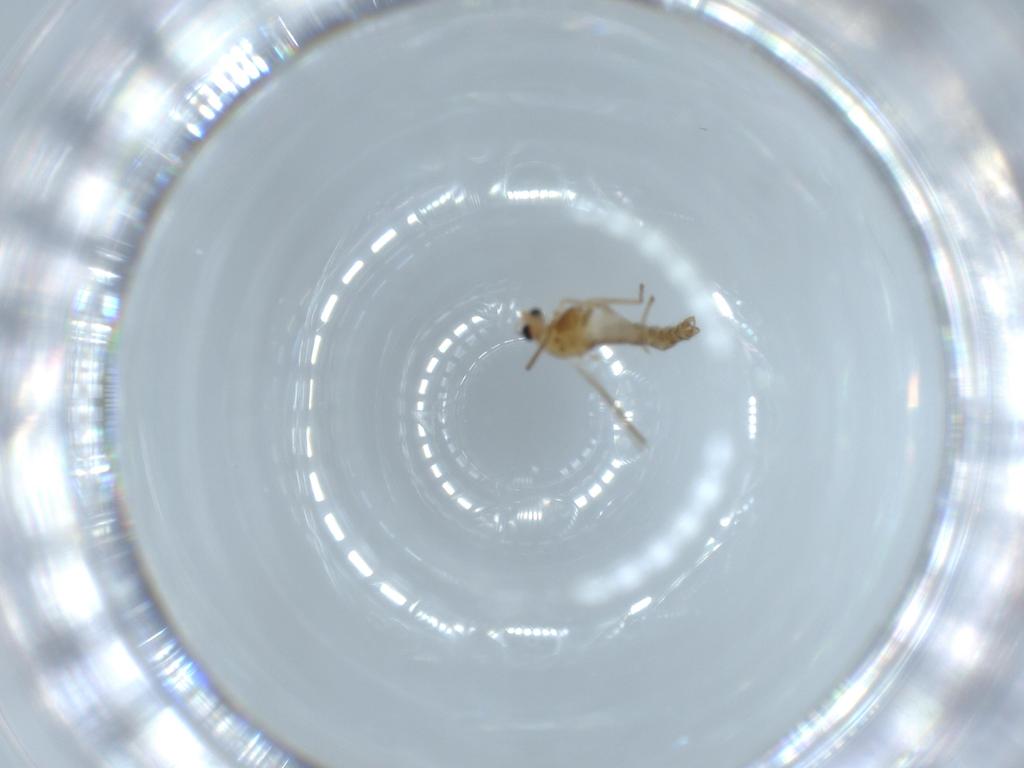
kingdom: Animalia
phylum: Arthropoda
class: Insecta
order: Diptera
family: Chironomidae
